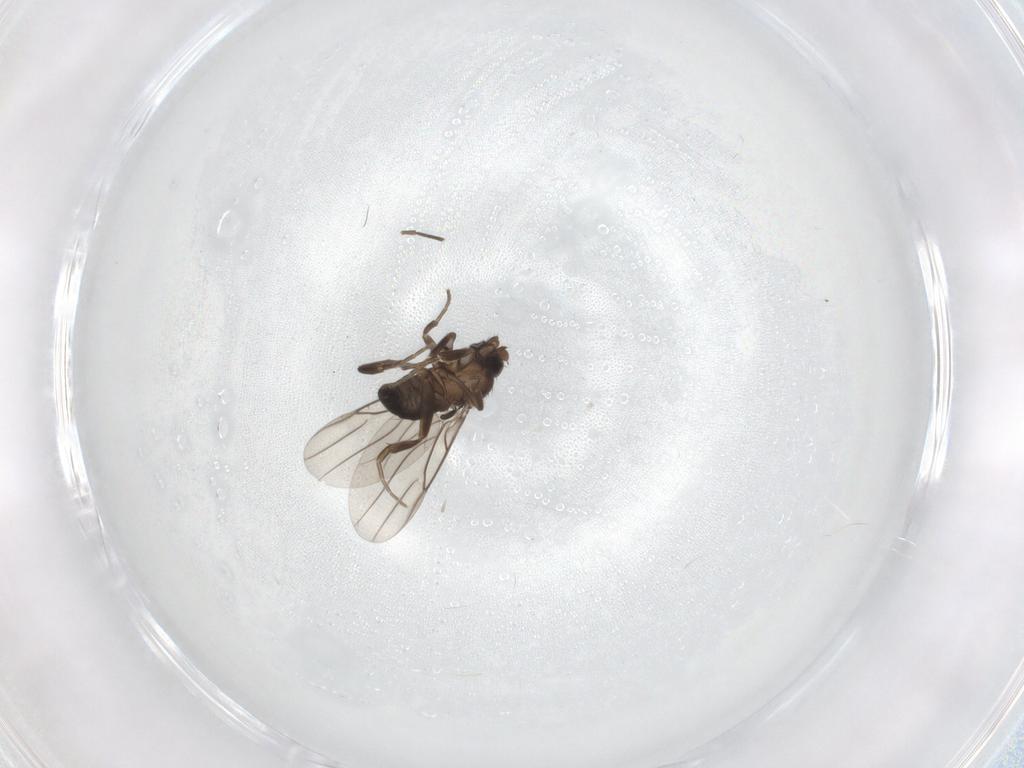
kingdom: Animalia
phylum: Arthropoda
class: Insecta
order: Diptera
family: Phoridae
